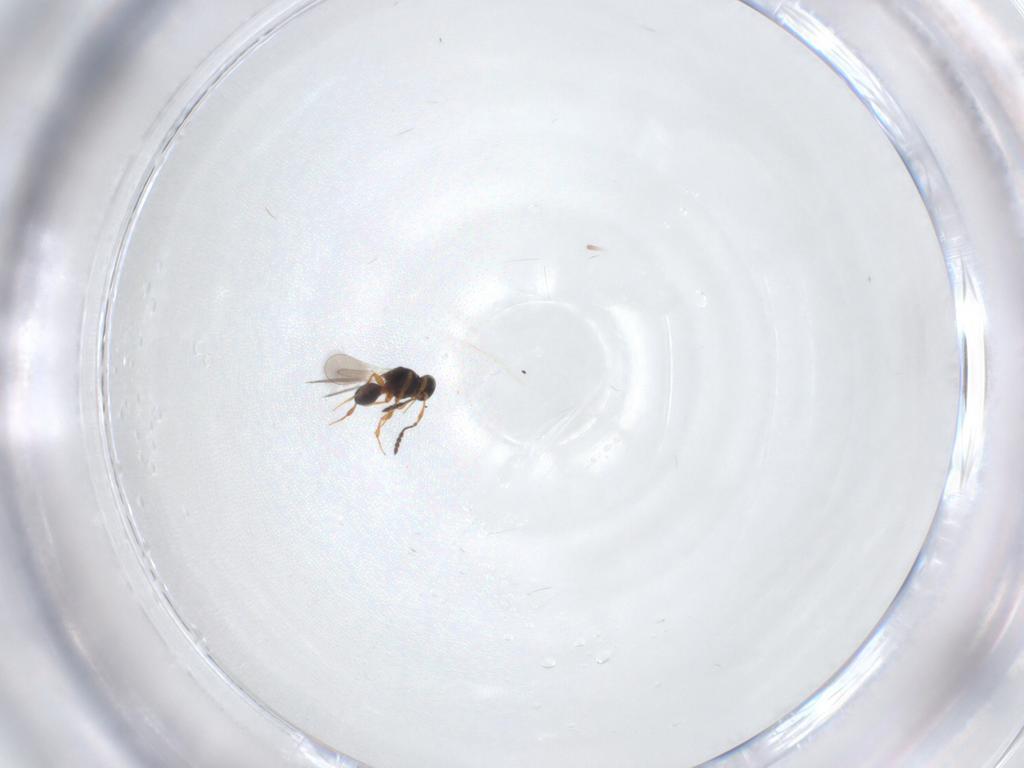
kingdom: Animalia
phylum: Arthropoda
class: Insecta
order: Hymenoptera
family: Platygastridae
